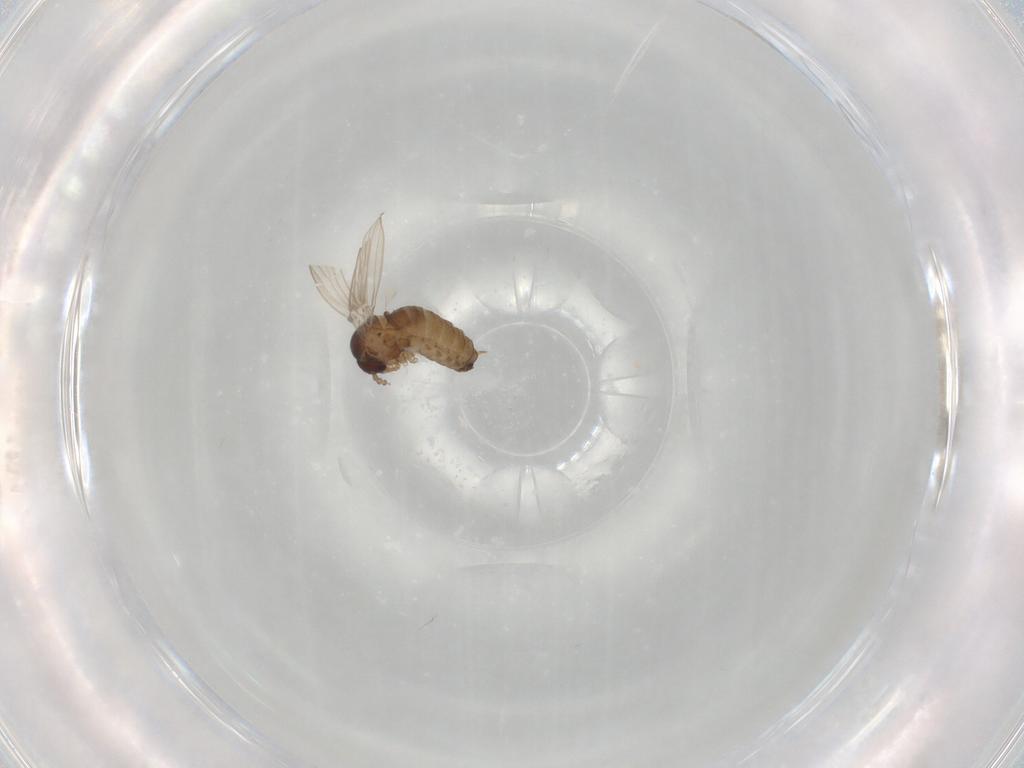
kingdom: Animalia
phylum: Arthropoda
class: Insecta
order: Diptera
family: Psychodidae
